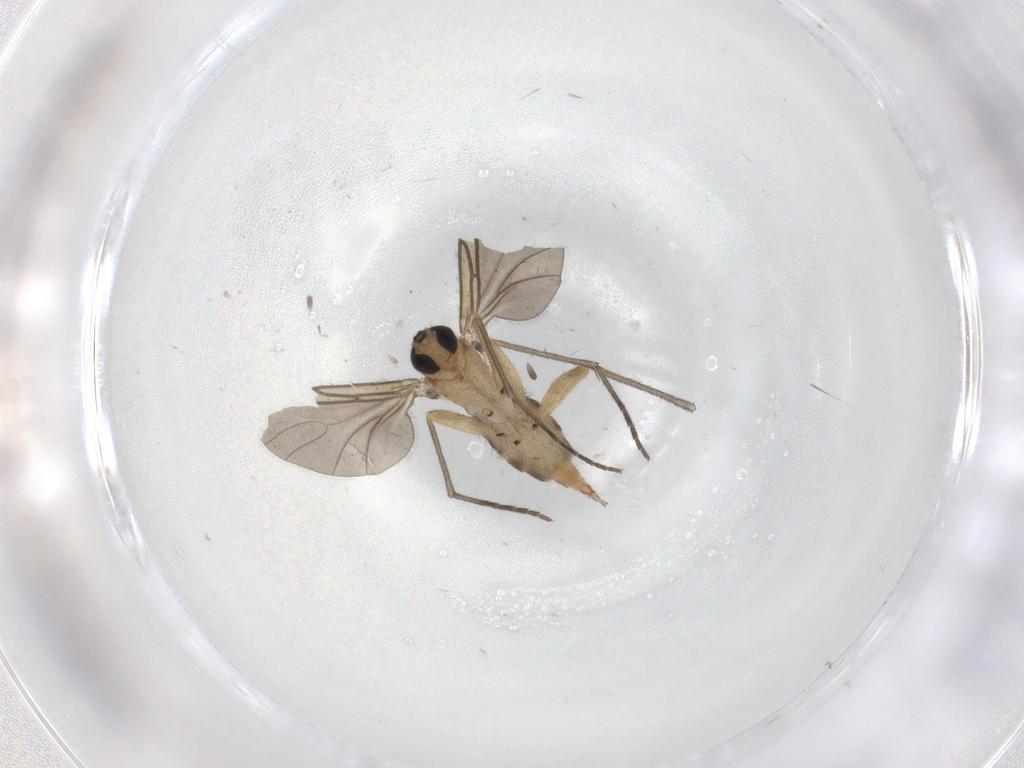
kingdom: Animalia
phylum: Arthropoda
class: Insecta
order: Diptera
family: Sciaridae
